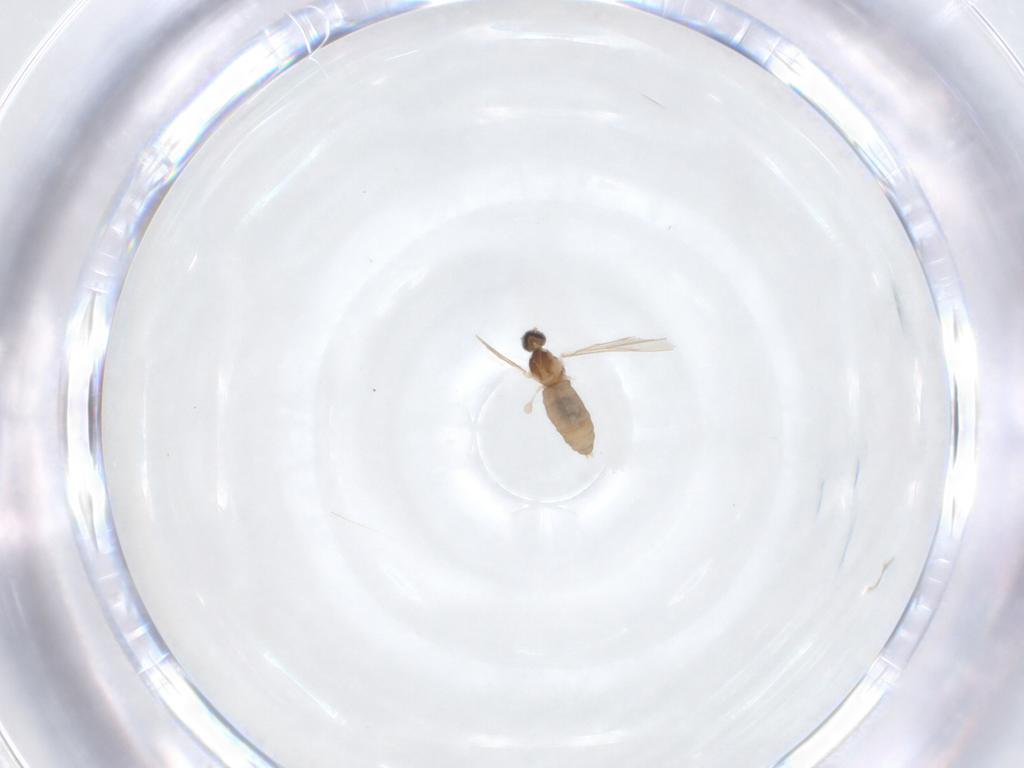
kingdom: Animalia
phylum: Arthropoda
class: Insecta
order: Diptera
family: Cecidomyiidae
